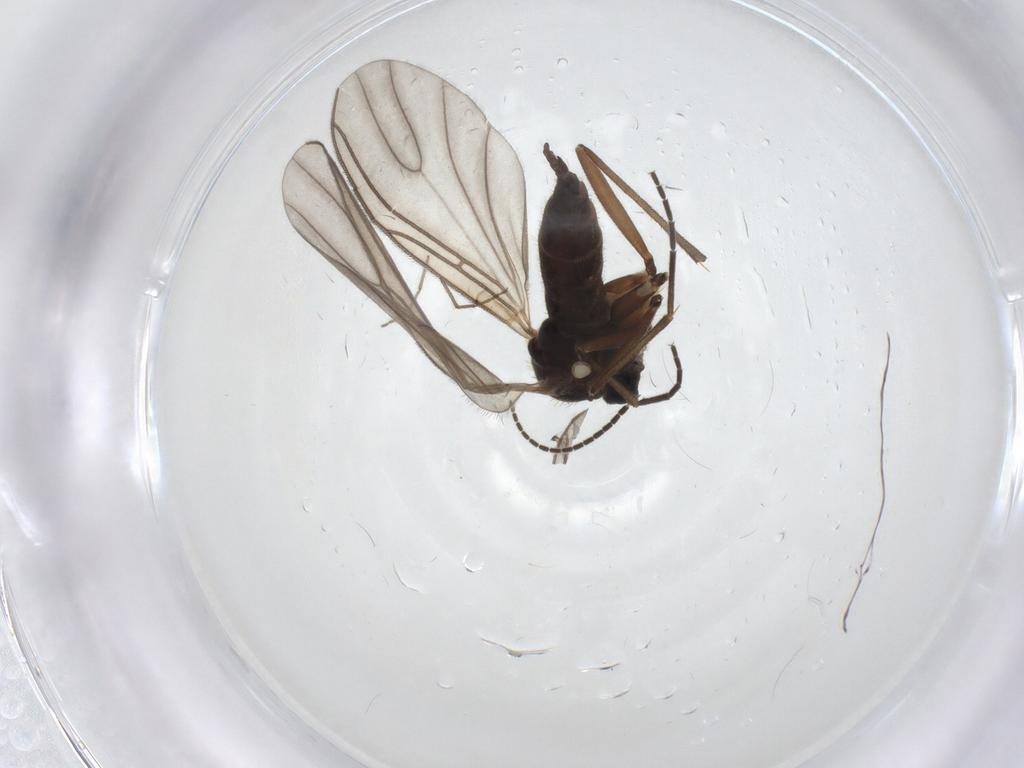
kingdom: Animalia
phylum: Arthropoda
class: Insecta
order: Diptera
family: Sciaridae
